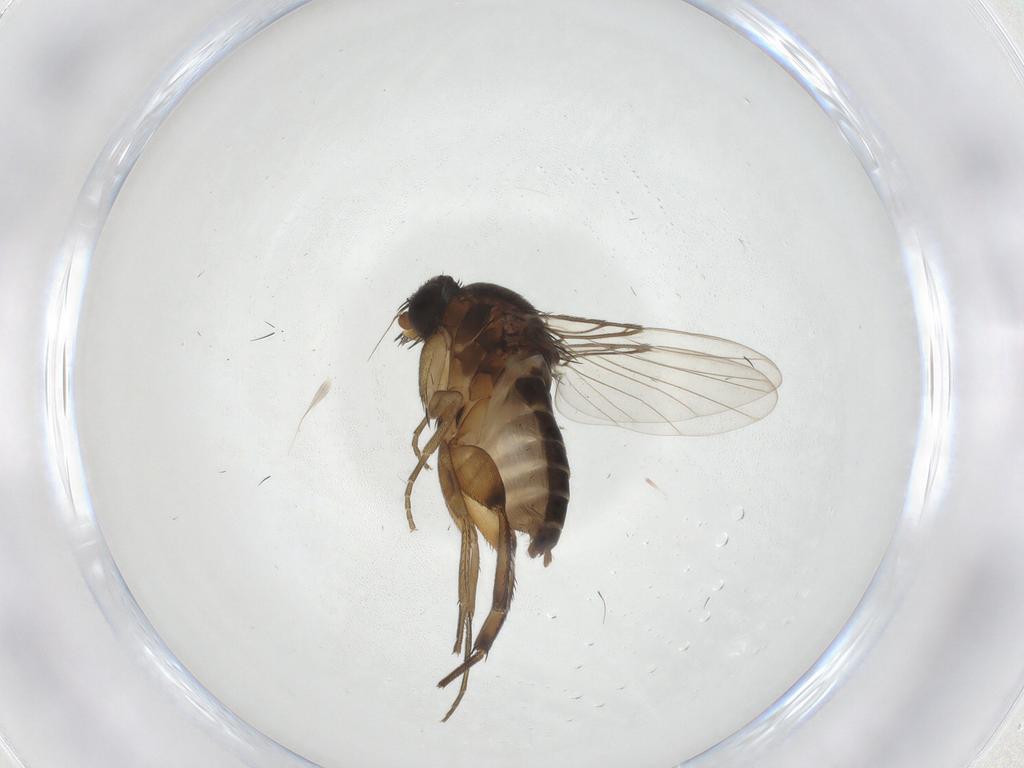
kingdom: Animalia
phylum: Arthropoda
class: Insecta
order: Diptera
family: Phoridae
